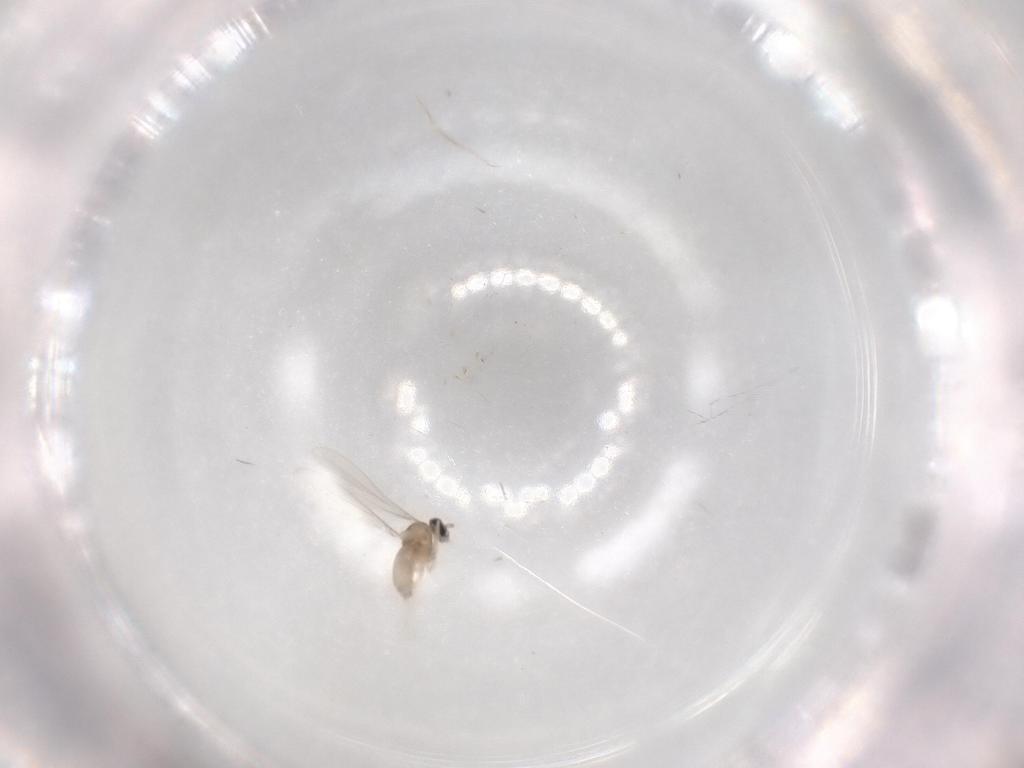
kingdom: Animalia
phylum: Arthropoda
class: Insecta
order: Diptera
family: Cecidomyiidae
